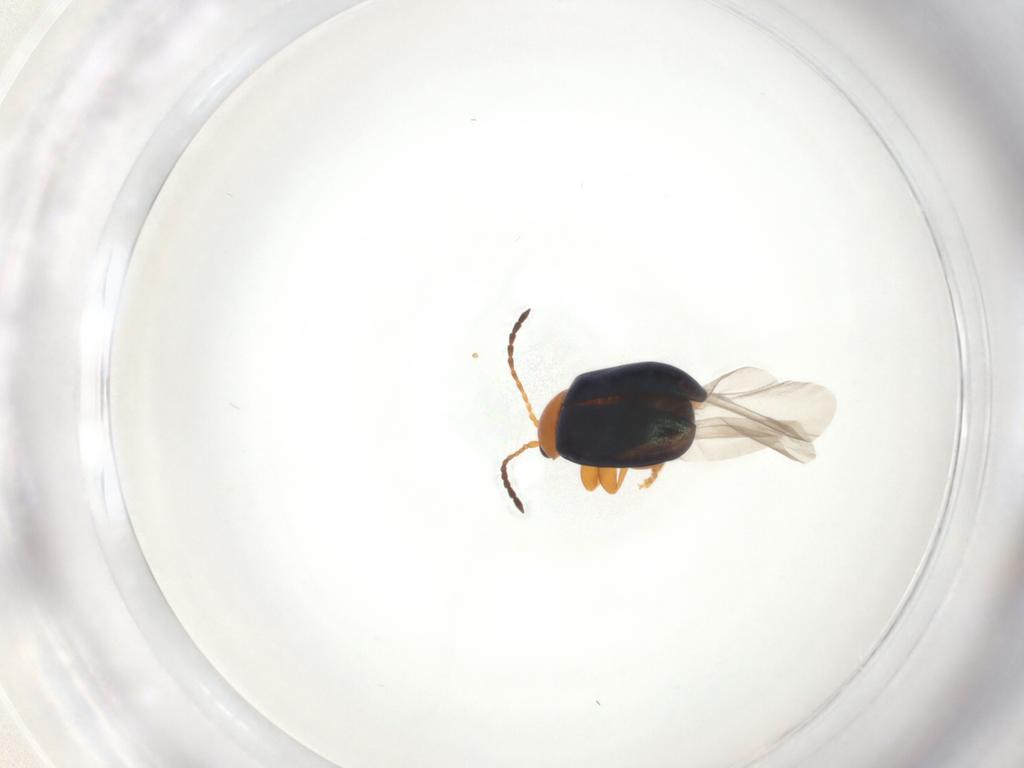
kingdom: Animalia
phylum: Arthropoda
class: Insecta
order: Coleoptera
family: Chrysomelidae
